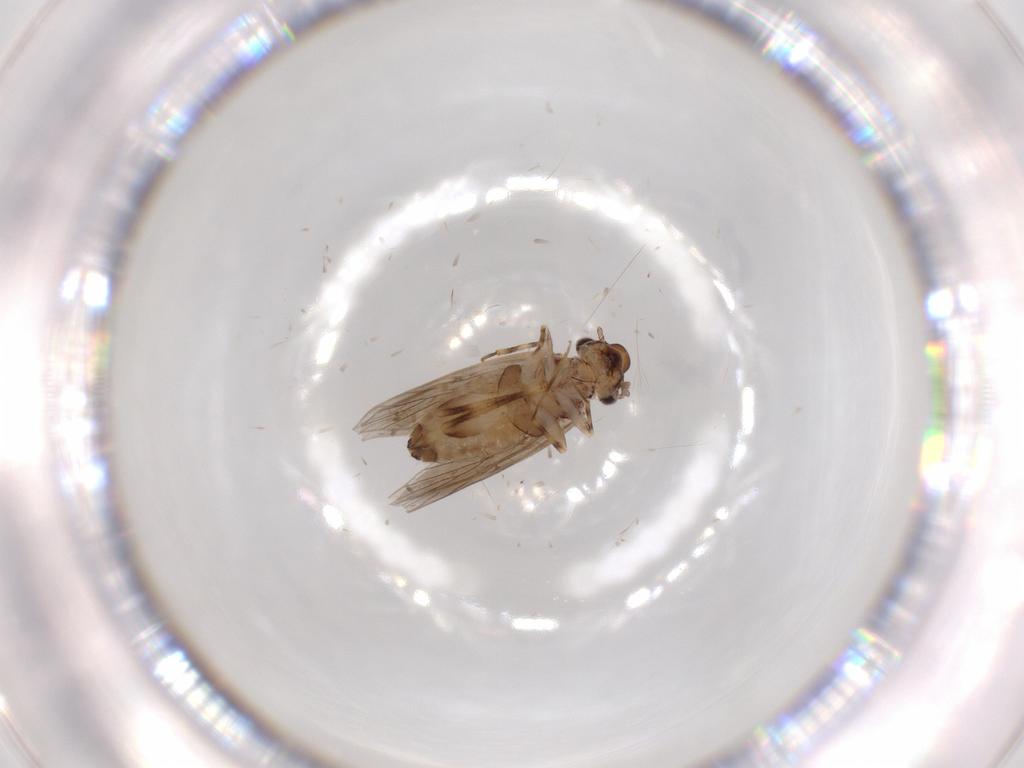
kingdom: Animalia
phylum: Arthropoda
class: Insecta
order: Psocodea
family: Lepidopsocidae
